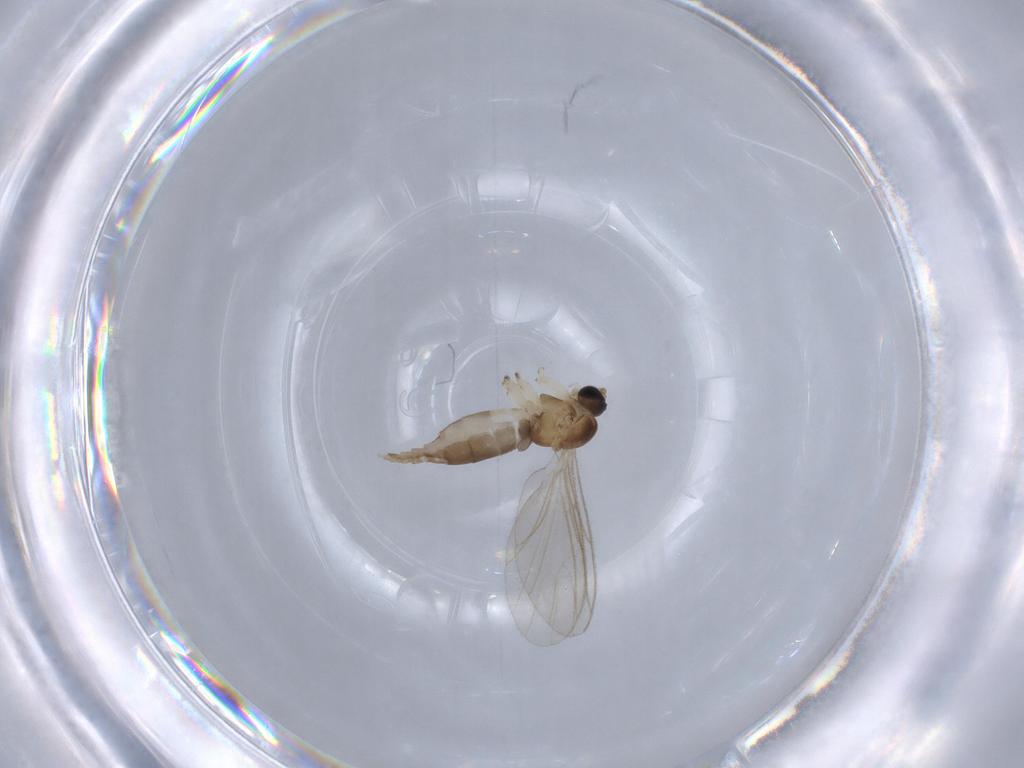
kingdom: Animalia
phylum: Arthropoda
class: Insecta
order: Diptera
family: Sciaridae
